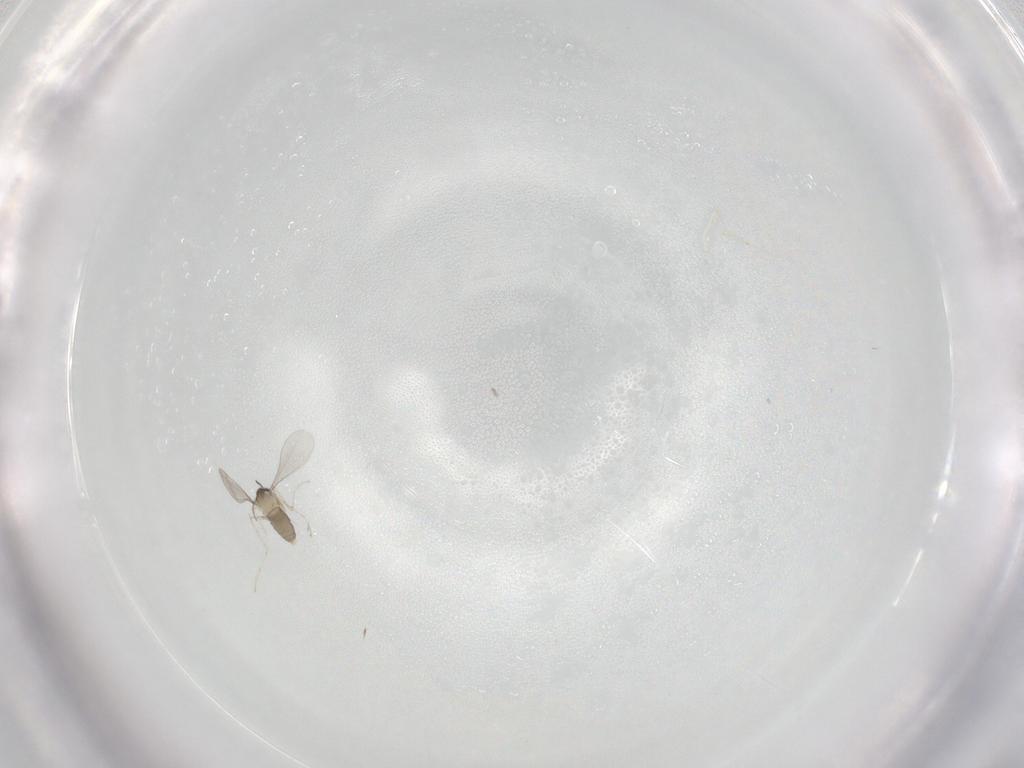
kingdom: Animalia
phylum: Arthropoda
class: Insecta
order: Diptera
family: Cecidomyiidae
